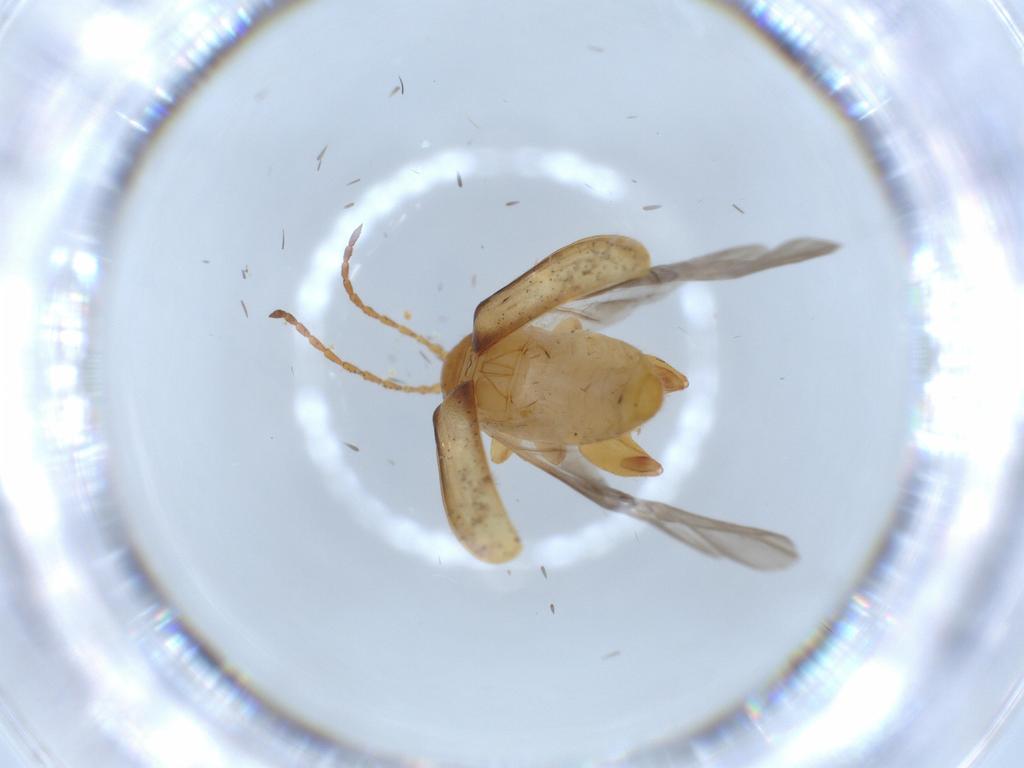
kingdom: Animalia
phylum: Arthropoda
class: Insecta
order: Coleoptera
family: Chrysomelidae
